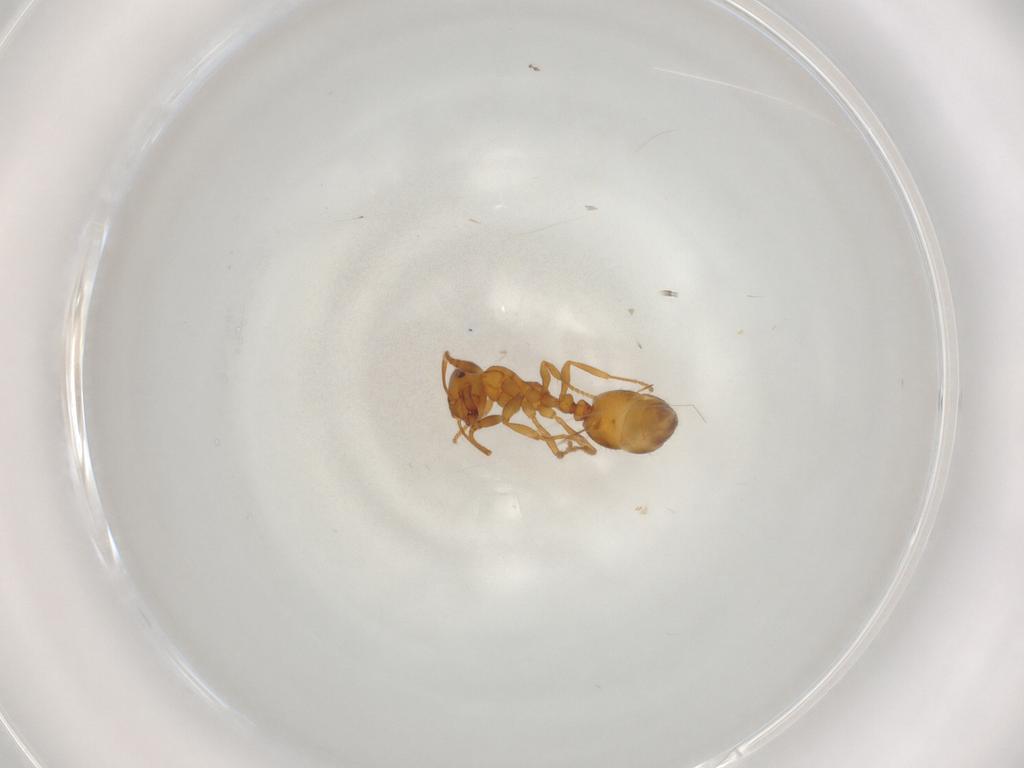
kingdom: Animalia
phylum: Arthropoda
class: Insecta
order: Hymenoptera
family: Formicidae
